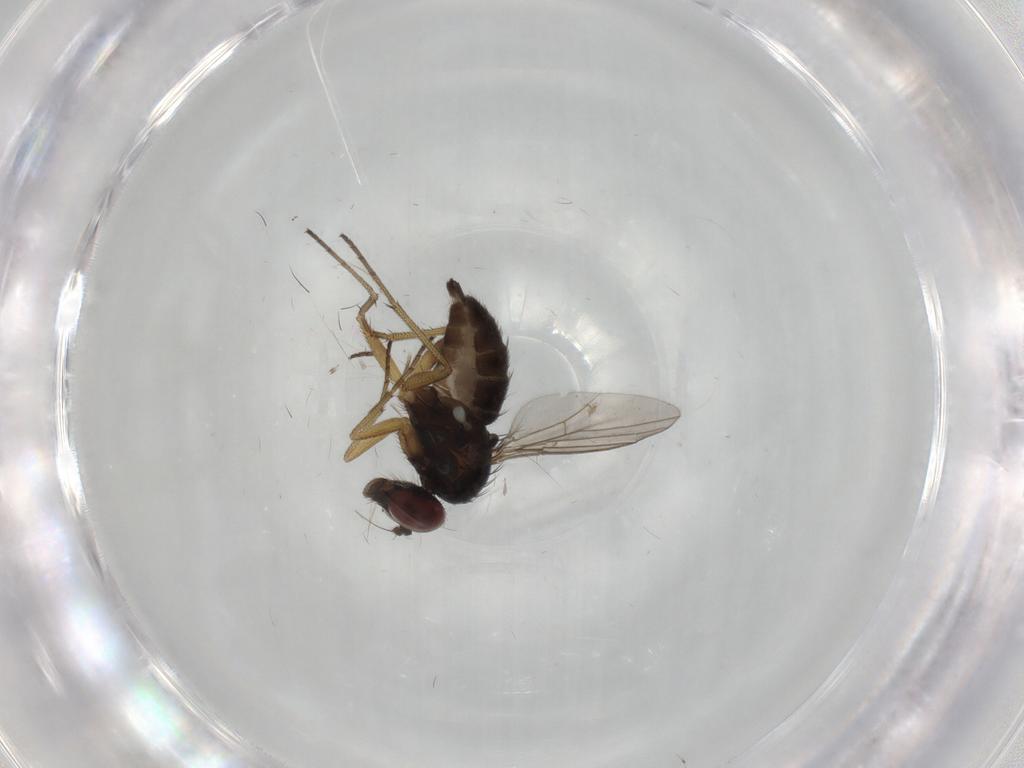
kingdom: Animalia
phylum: Arthropoda
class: Insecta
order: Diptera
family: Dolichopodidae
